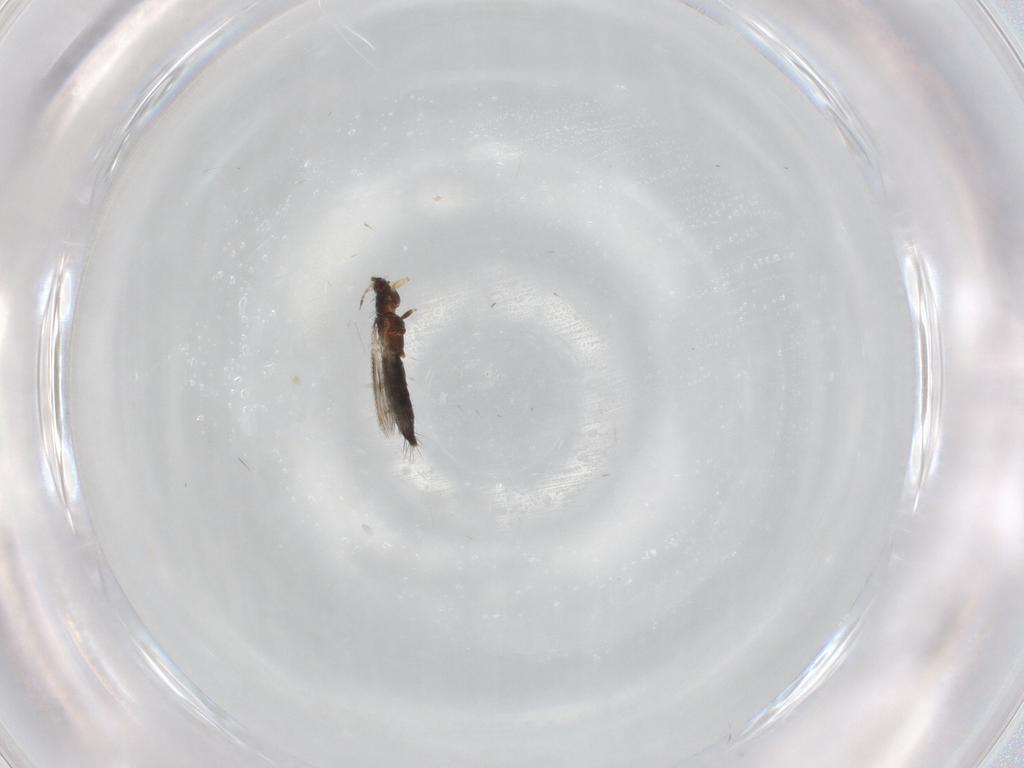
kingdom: Animalia
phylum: Arthropoda
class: Insecta
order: Thysanoptera
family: Thripidae
